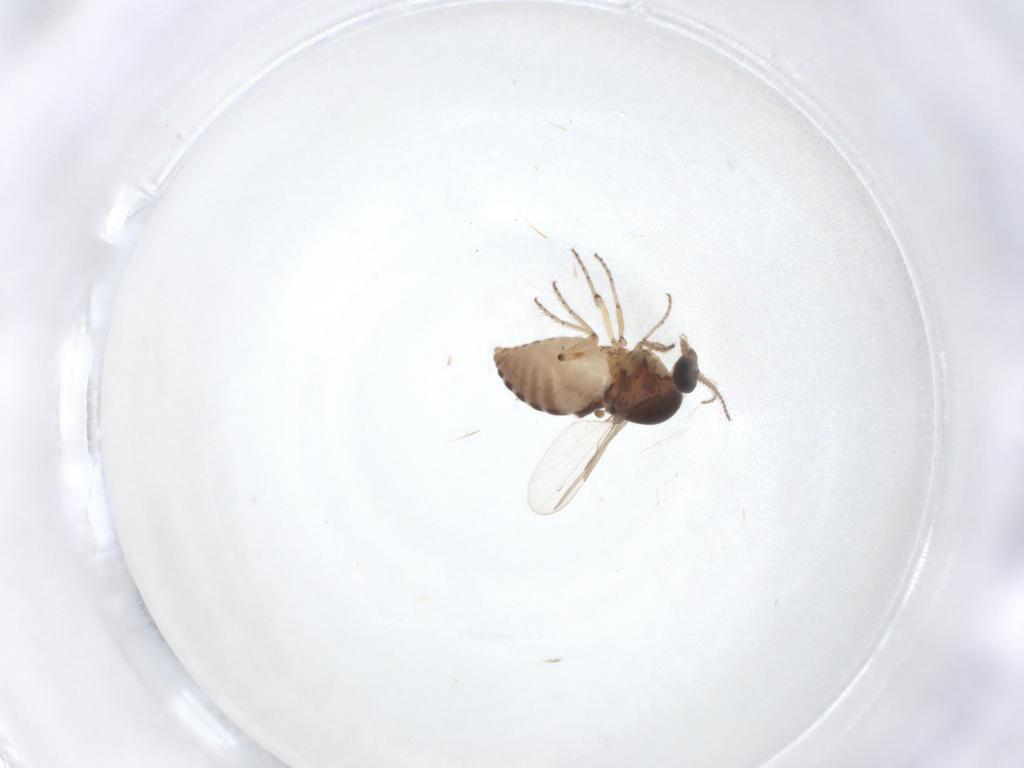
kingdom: Animalia
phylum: Arthropoda
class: Insecta
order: Diptera
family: Ceratopogonidae
